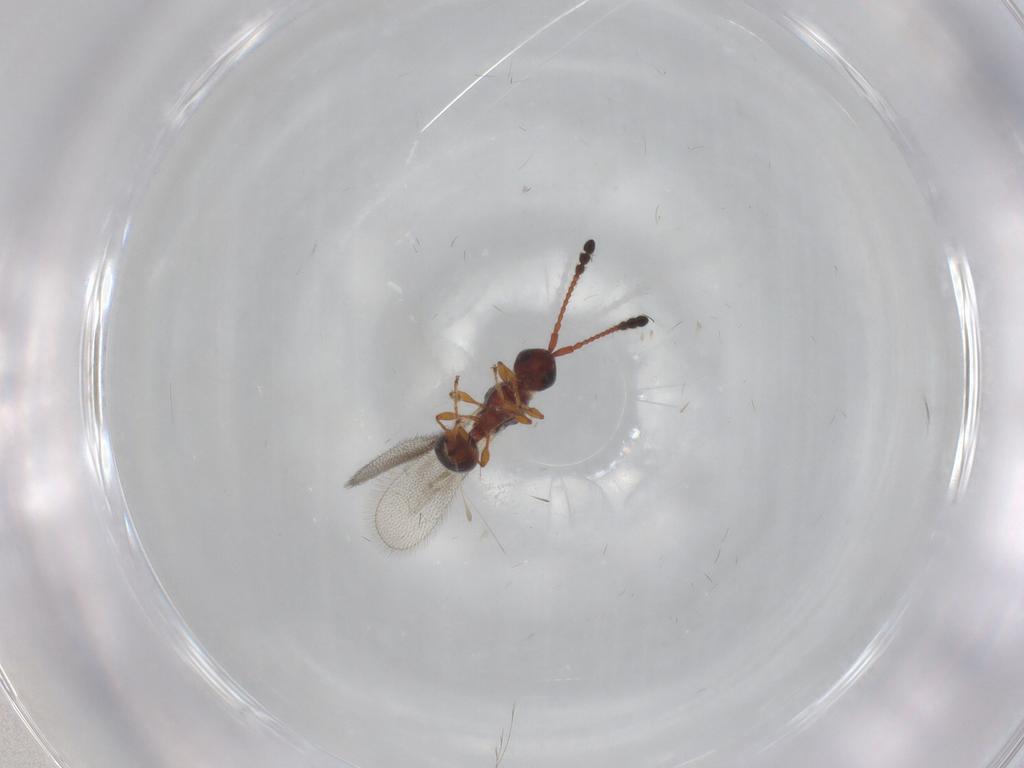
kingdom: Animalia
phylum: Arthropoda
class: Insecta
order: Hymenoptera
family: Diapriidae
